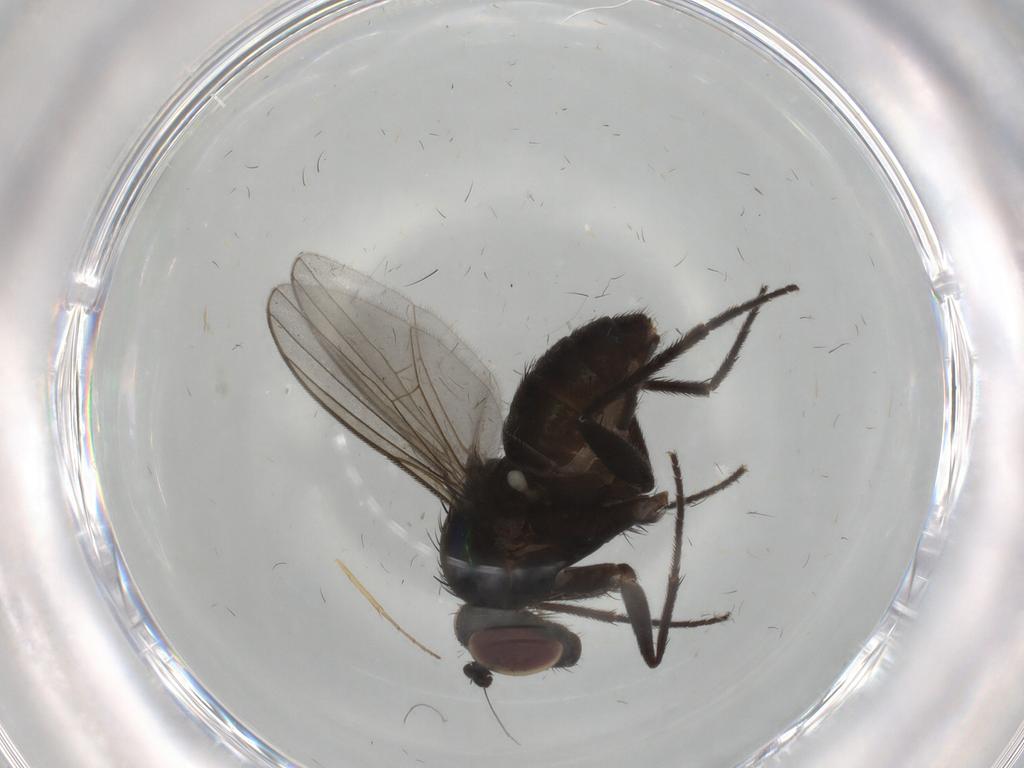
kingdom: Animalia
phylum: Arthropoda
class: Insecta
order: Diptera
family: Dolichopodidae
